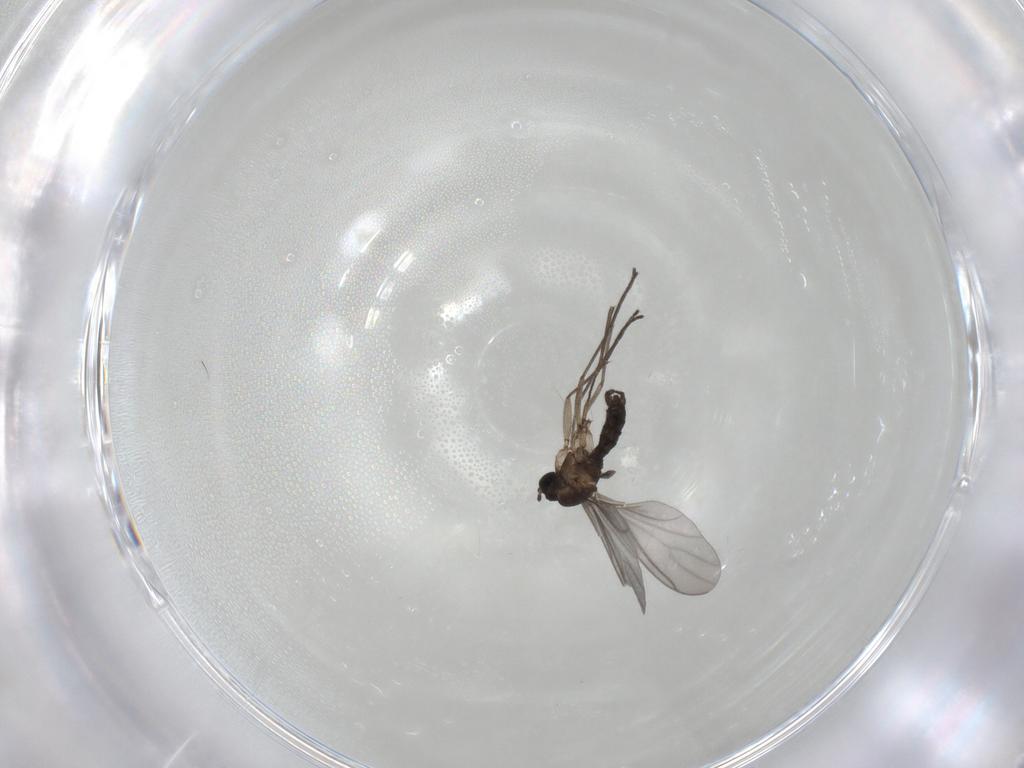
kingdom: Animalia
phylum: Arthropoda
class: Insecta
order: Diptera
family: Sciaridae
